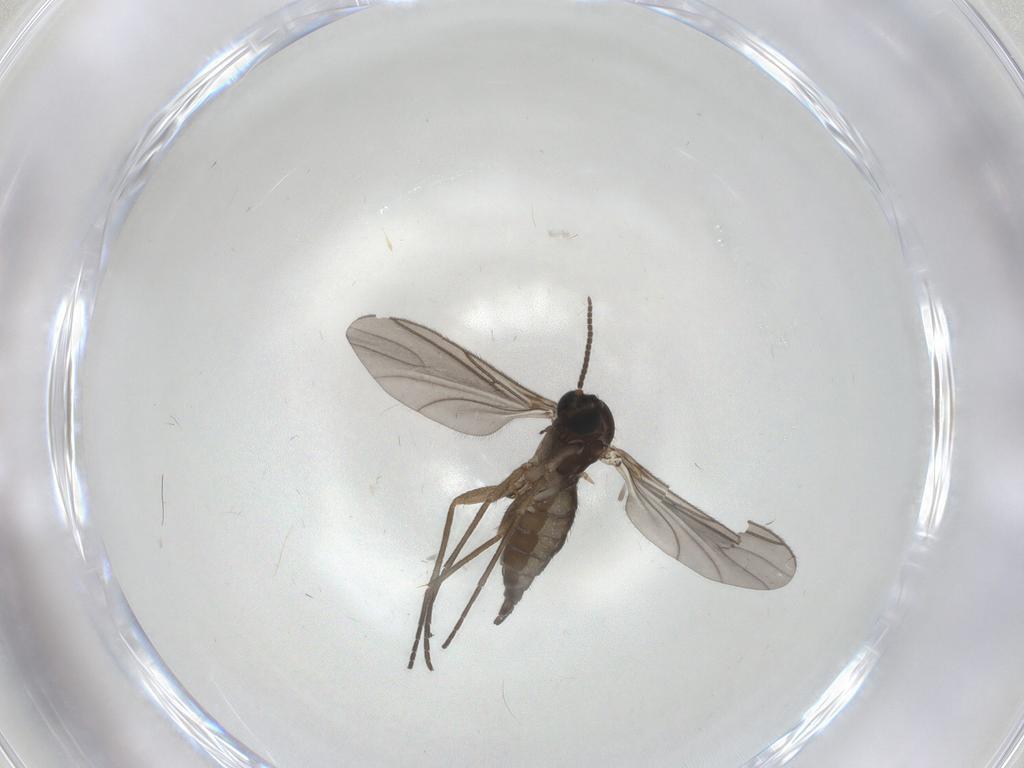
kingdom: Animalia
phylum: Arthropoda
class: Insecta
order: Diptera
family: Sciaridae
